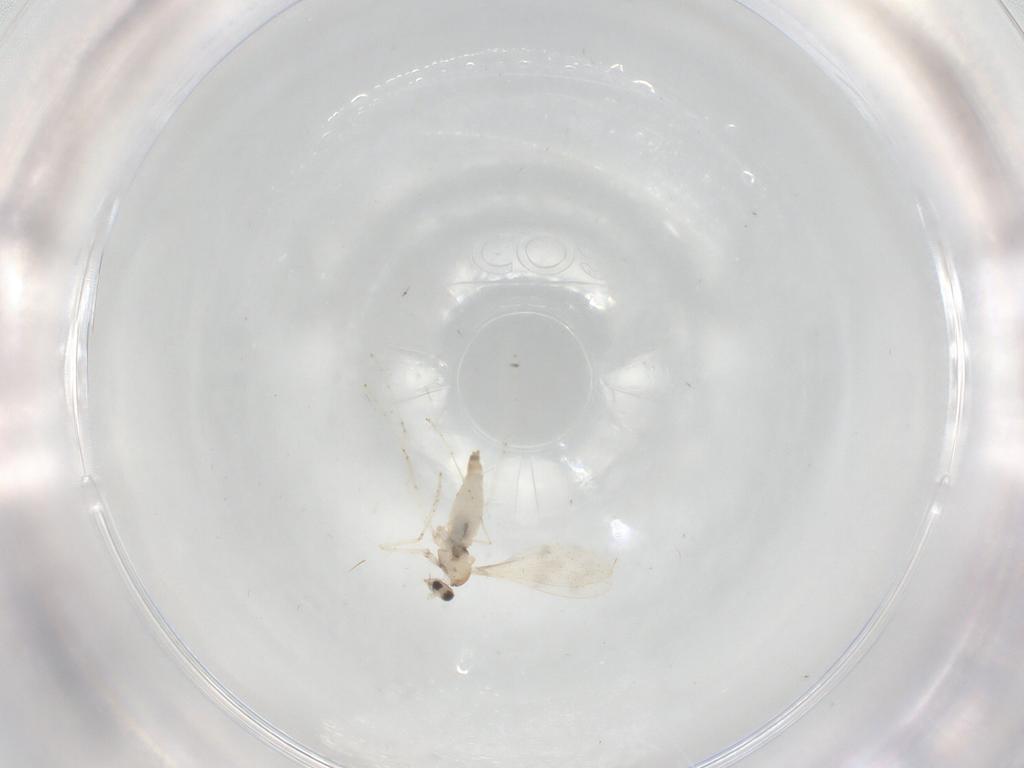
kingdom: Animalia
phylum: Arthropoda
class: Insecta
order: Diptera
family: Cecidomyiidae
